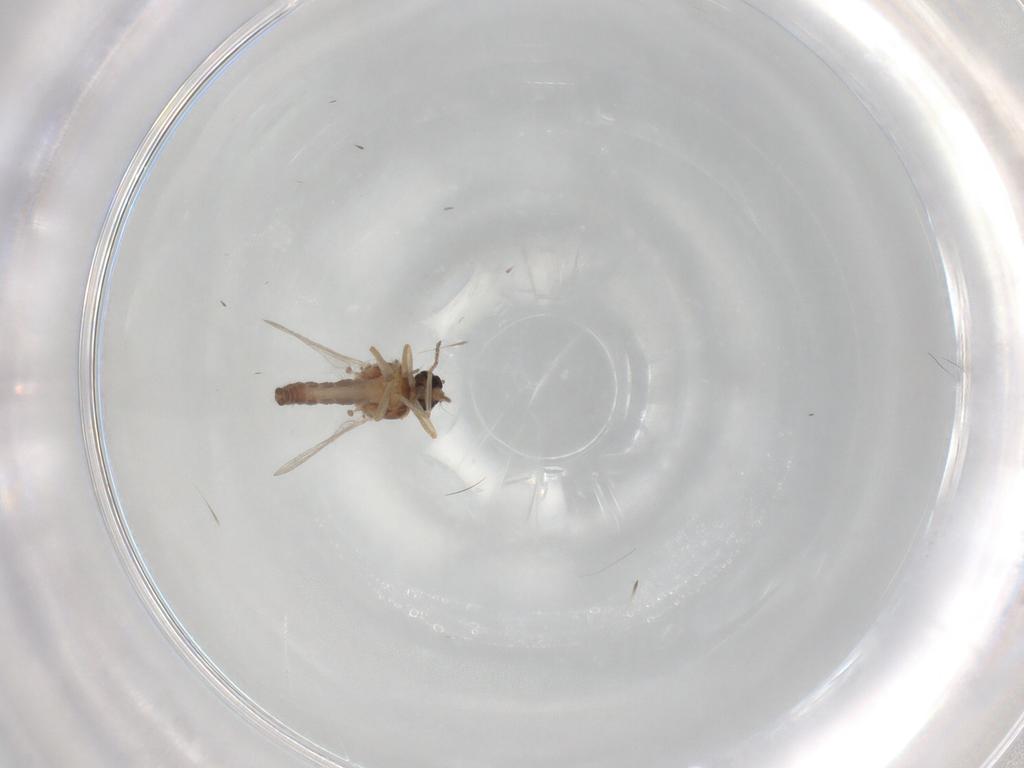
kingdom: Animalia
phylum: Arthropoda
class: Insecta
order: Diptera
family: Ceratopogonidae
